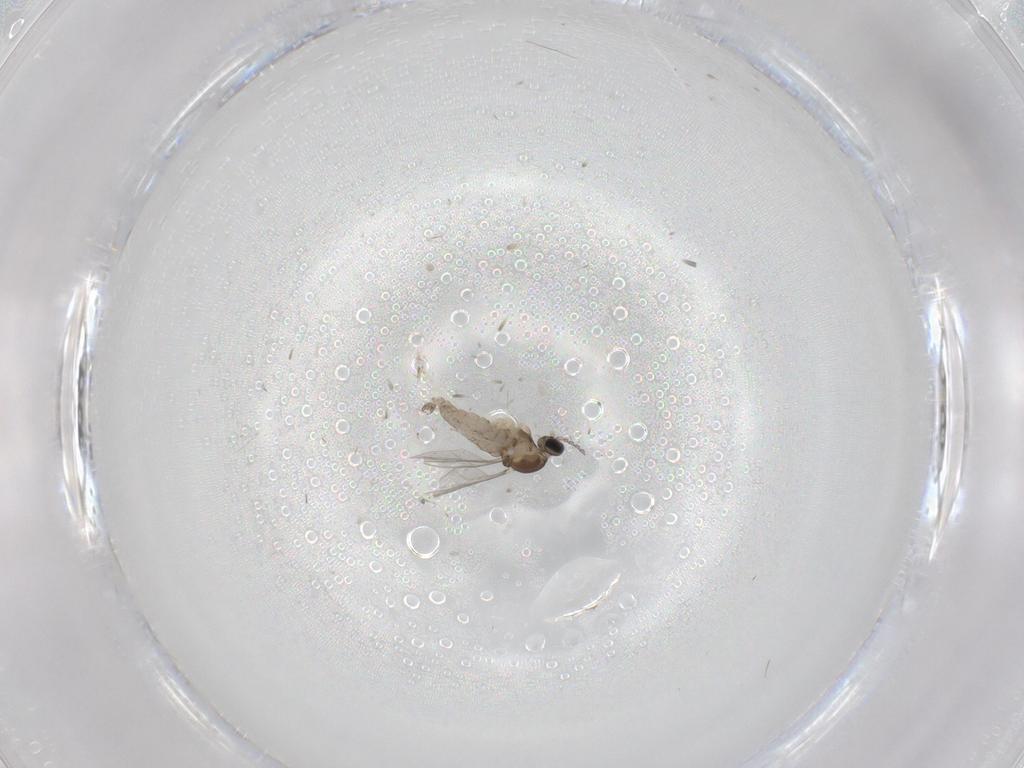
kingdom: Animalia
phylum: Arthropoda
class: Insecta
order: Diptera
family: Cecidomyiidae
